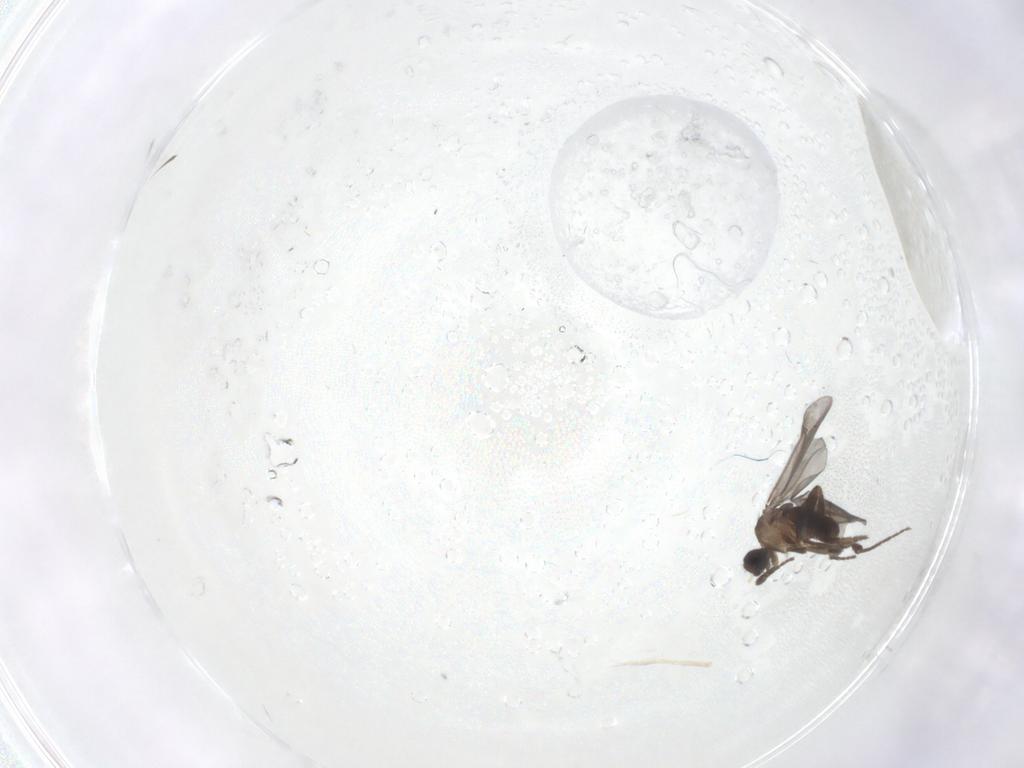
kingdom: Animalia
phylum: Arthropoda
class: Insecta
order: Diptera
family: Phoridae
